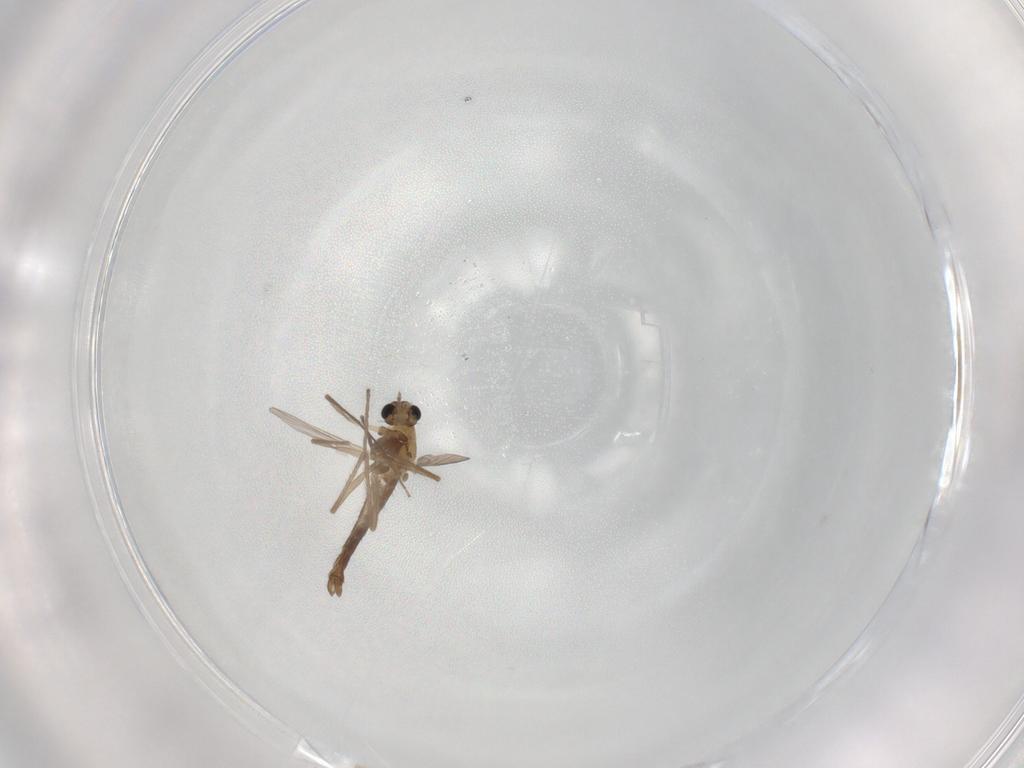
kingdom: Animalia
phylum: Arthropoda
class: Insecta
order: Diptera
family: Chironomidae
